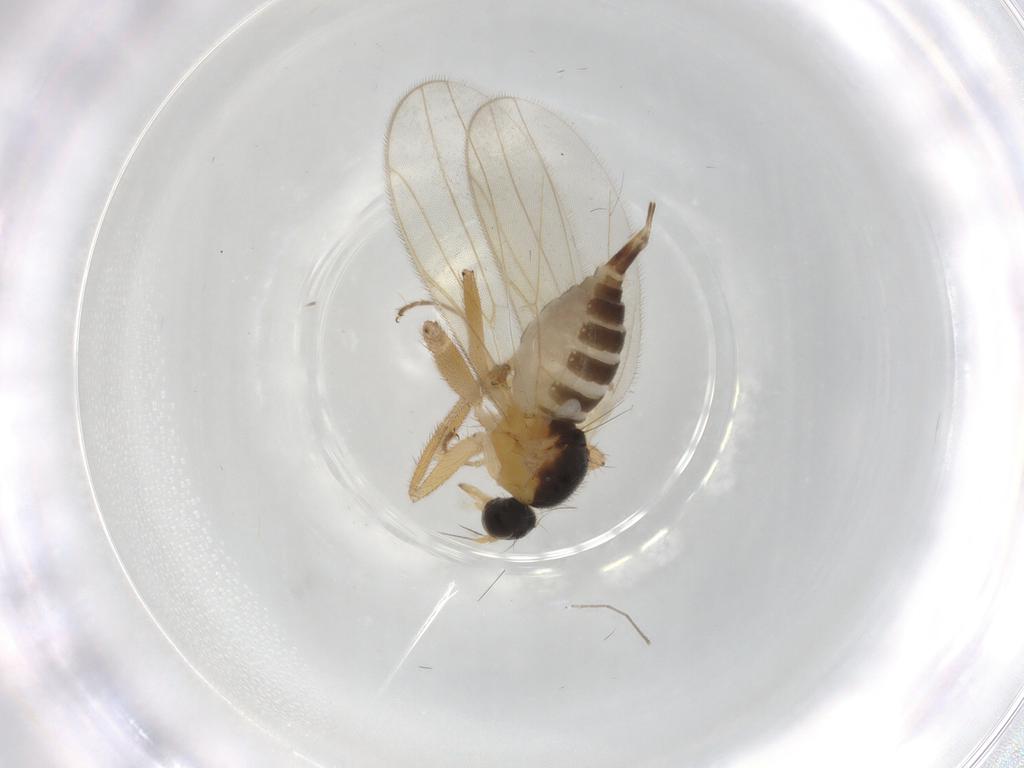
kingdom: Animalia
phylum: Arthropoda
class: Insecta
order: Diptera
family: Hybotidae
